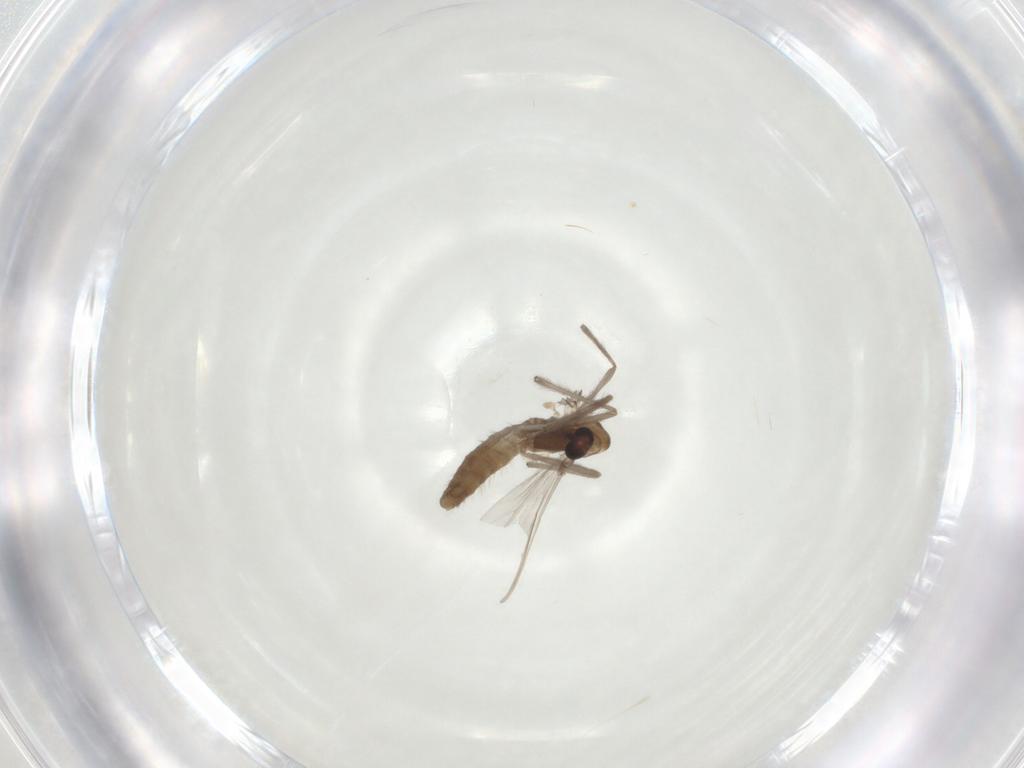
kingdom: Animalia
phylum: Arthropoda
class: Insecta
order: Diptera
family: Chironomidae
